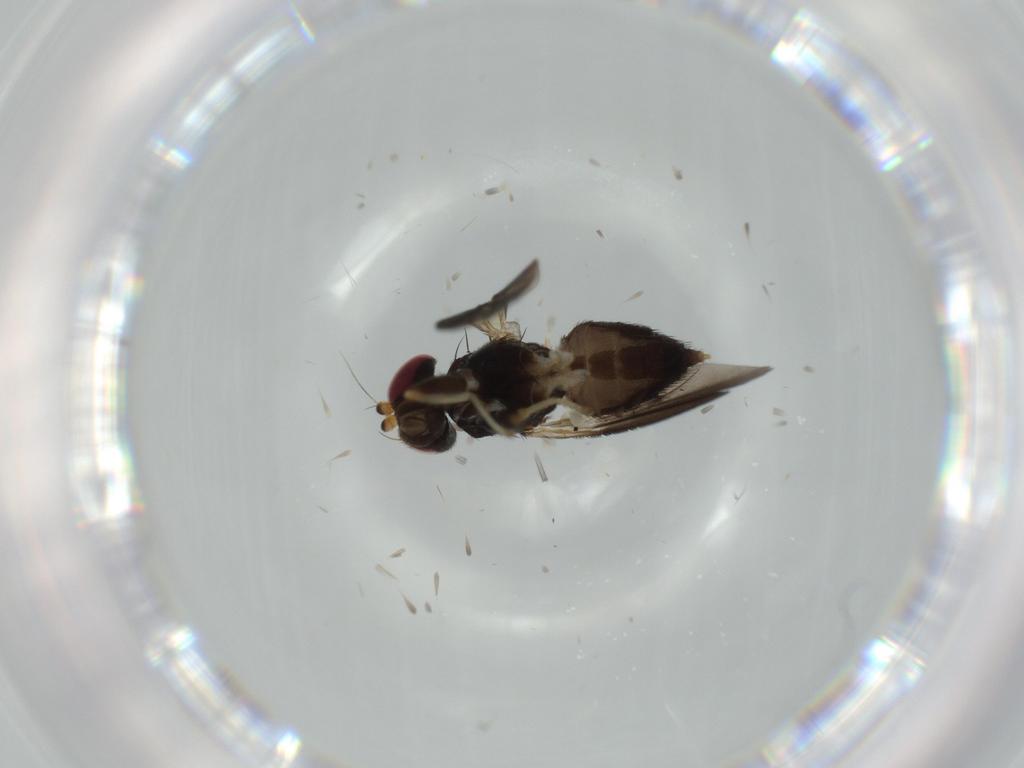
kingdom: Animalia
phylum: Arthropoda
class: Insecta
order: Diptera
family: Clusiidae
